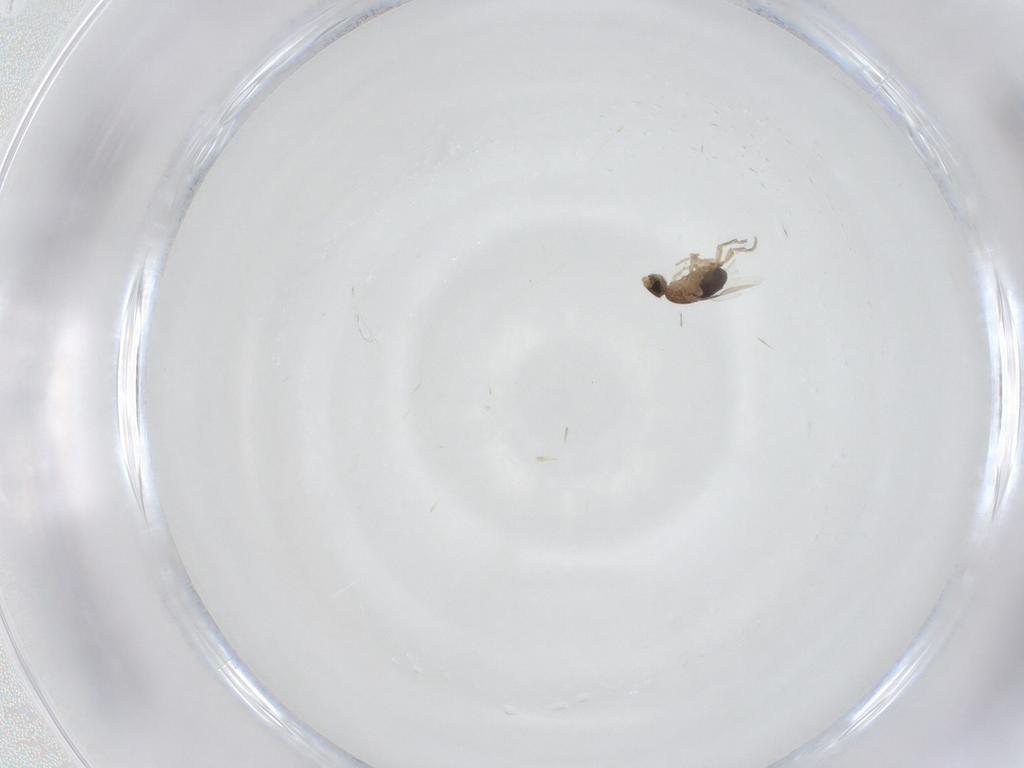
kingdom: Animalia
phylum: Arthropoda
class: Insecta
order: Diptera
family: Phoridae
